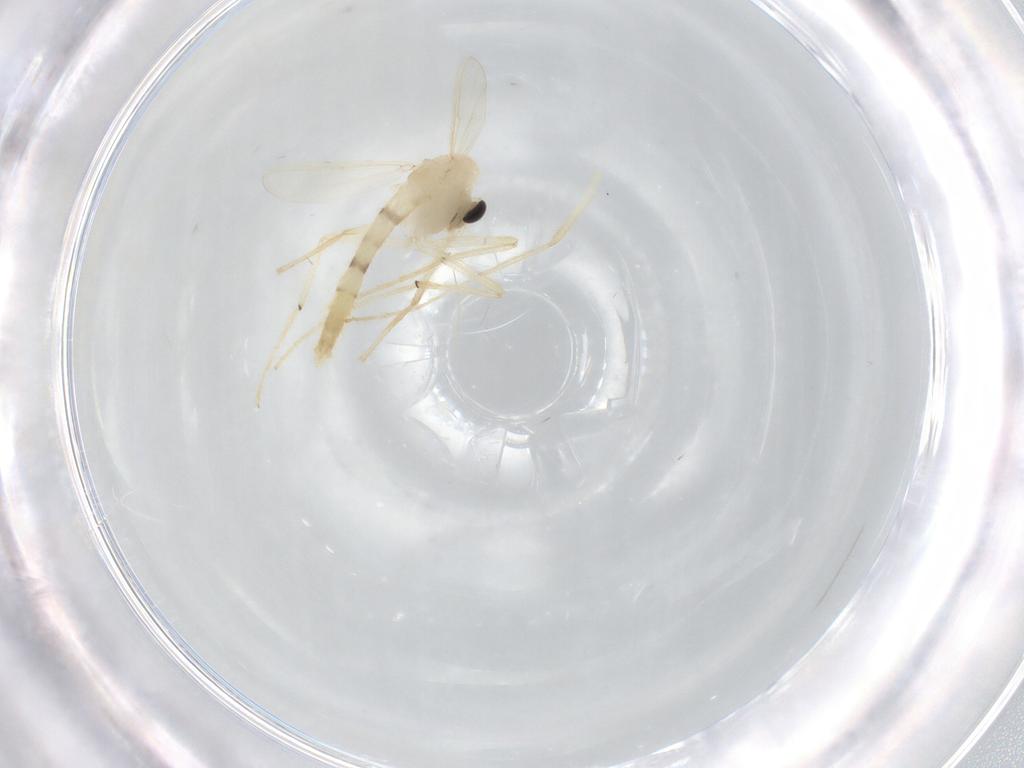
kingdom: Animalia
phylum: Arthropoda
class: Insecta
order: Diptera
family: Chironomidae
